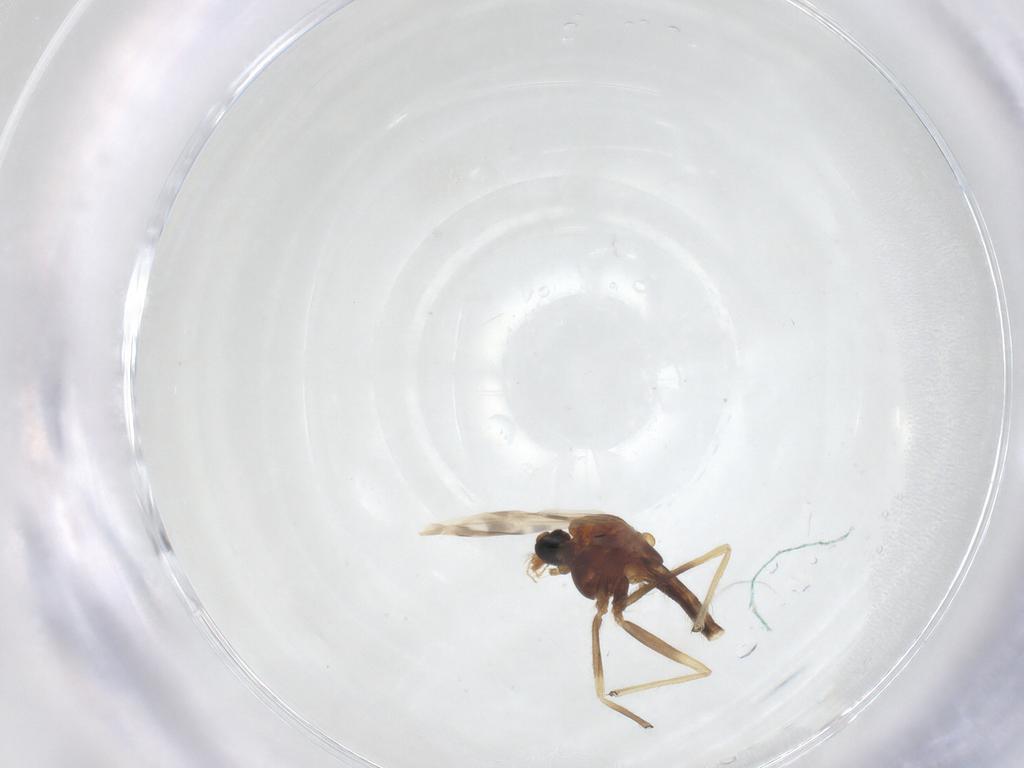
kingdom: Animalia
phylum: Arthropoda
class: Insecta
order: Diptera
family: Chironomidae
